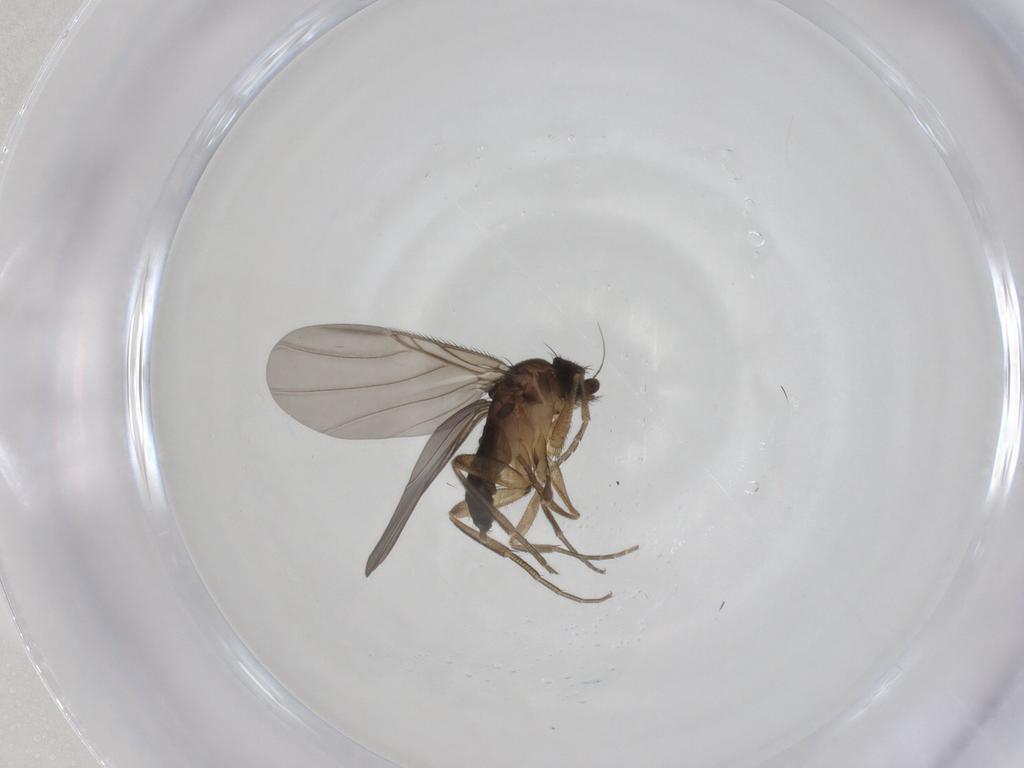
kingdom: Animalia
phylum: Arthropoda
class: Insecta
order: Diptera
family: Phoridae
